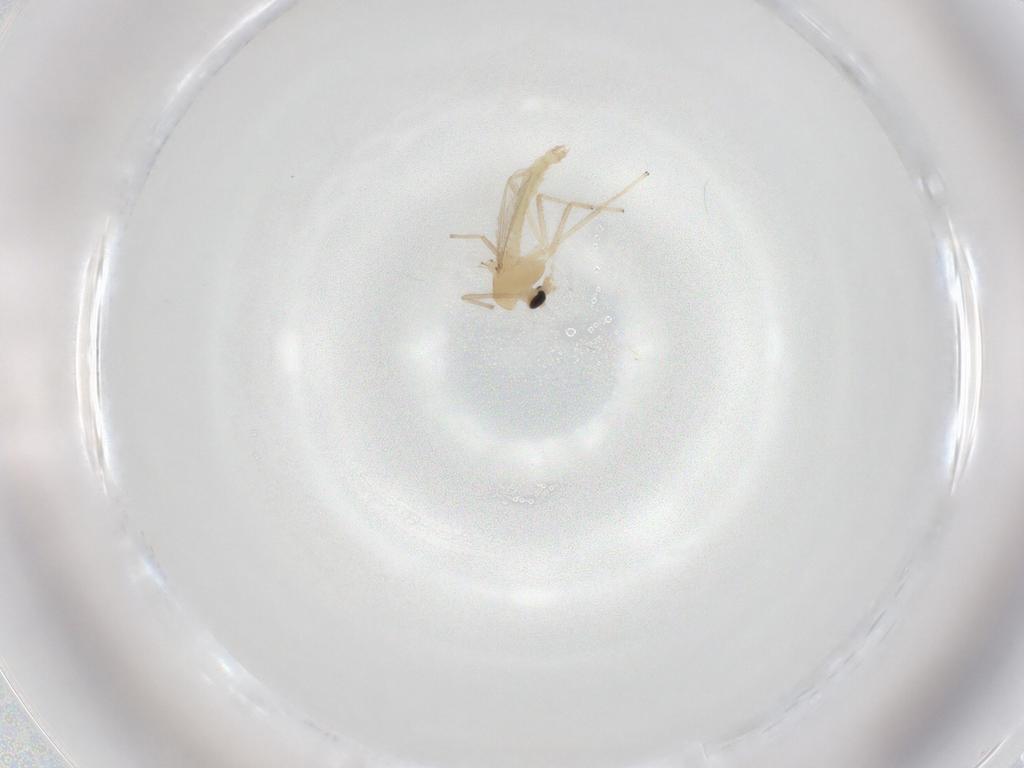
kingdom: Animalia
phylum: Arthropoda
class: Insecta
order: Diptera
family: Chironomidae
